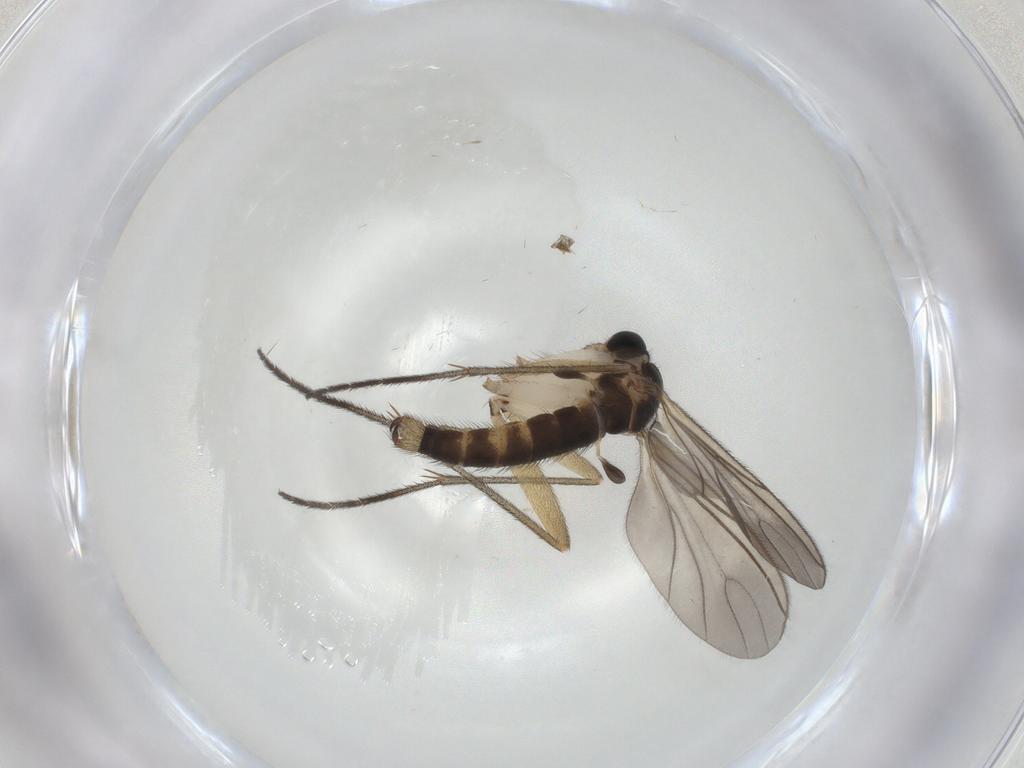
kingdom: Animalia
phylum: Arthropoda
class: Insecta
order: Diptera
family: Sciaridae
